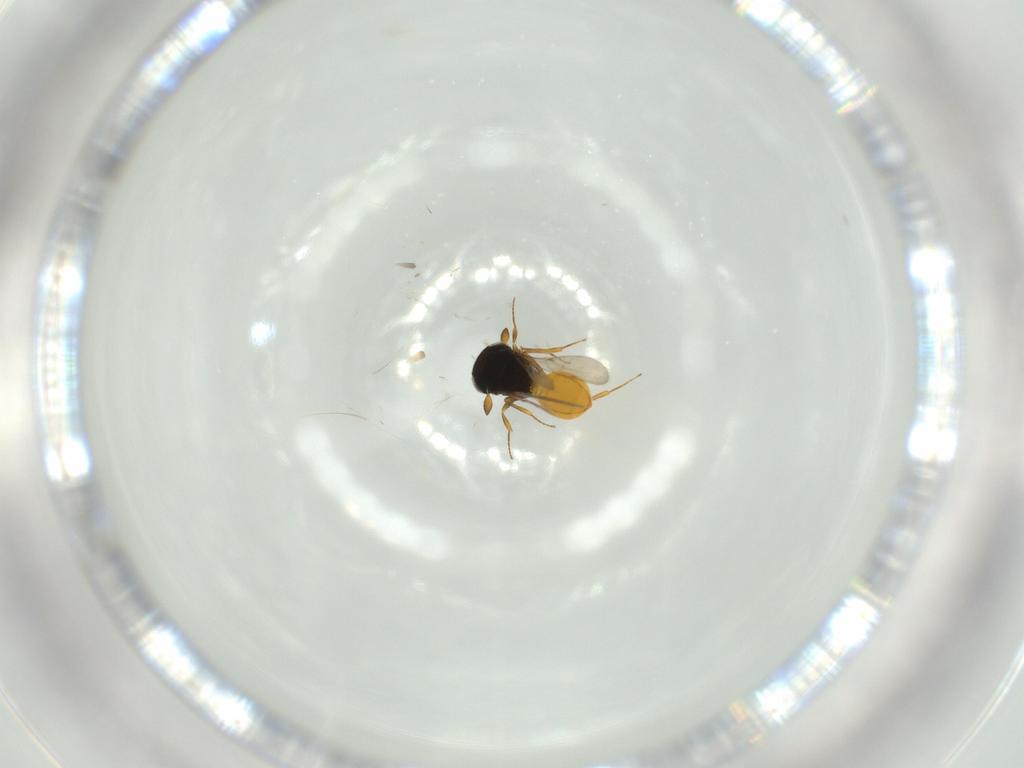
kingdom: Animalia
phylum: Arthropoda
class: Insecta
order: Hymenoptera
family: Scelionidae
